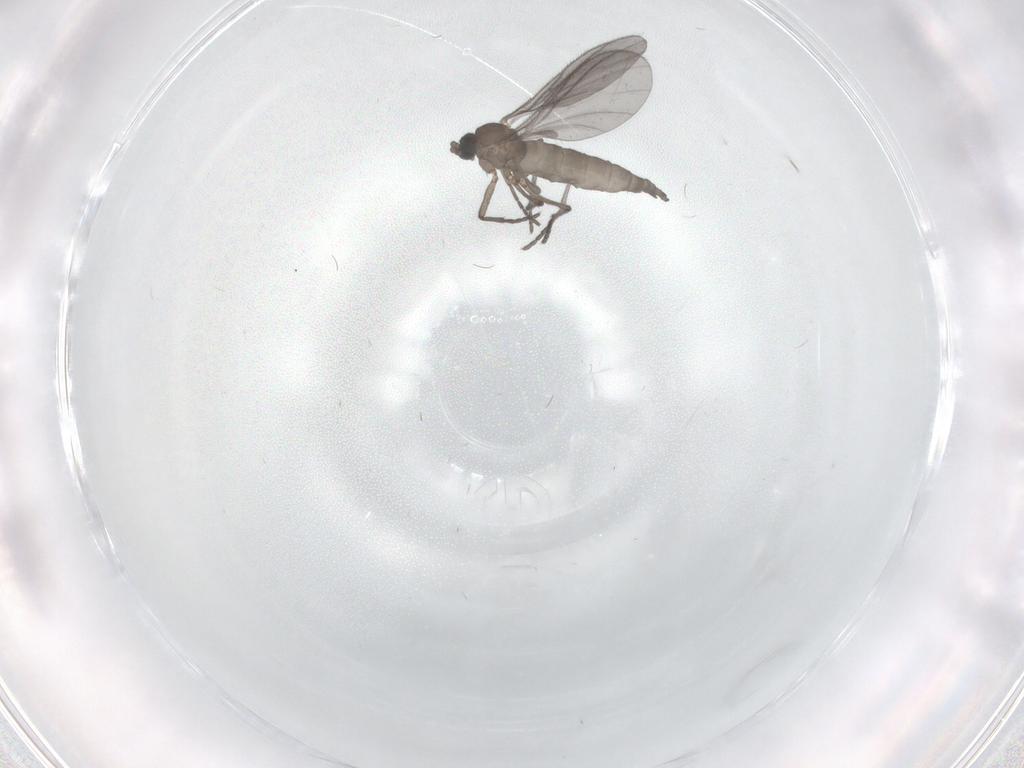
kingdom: Animalia
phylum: Arthropoda
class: Insecta
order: Diptera
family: Sciaridae
